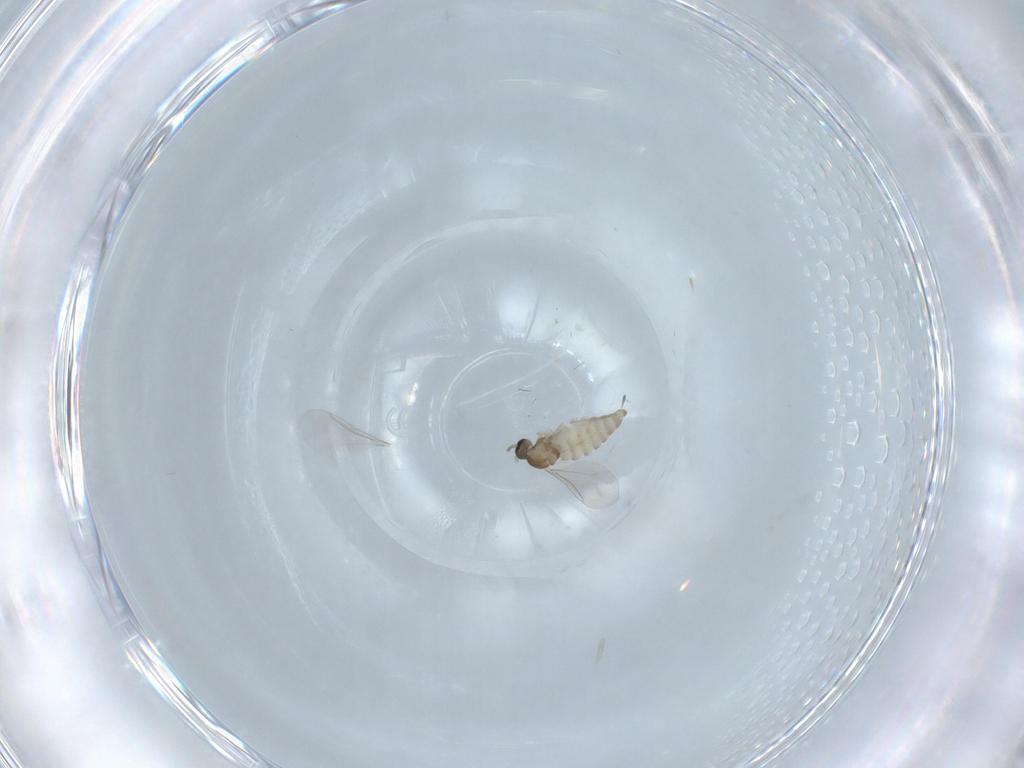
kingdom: Animalia
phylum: Arthropoda
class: Insecta
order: Diptera
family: Cecidomyiidae
